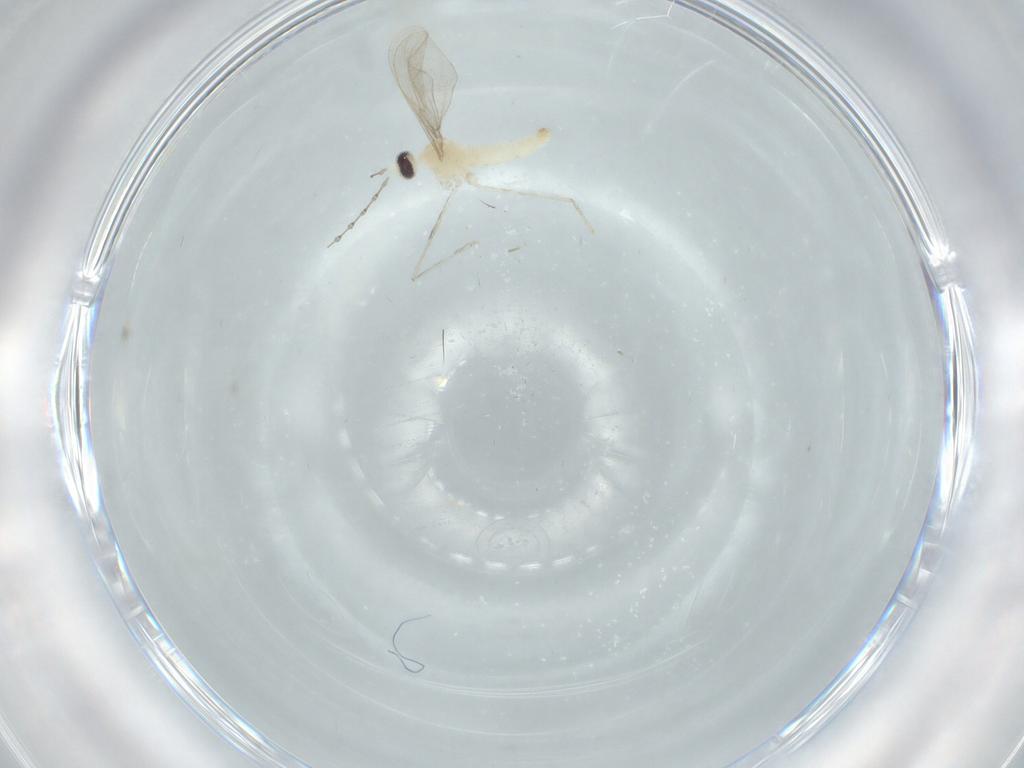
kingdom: Animalia
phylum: Arthropoda
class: Insecta
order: Diptera
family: Cecidomyiidae
